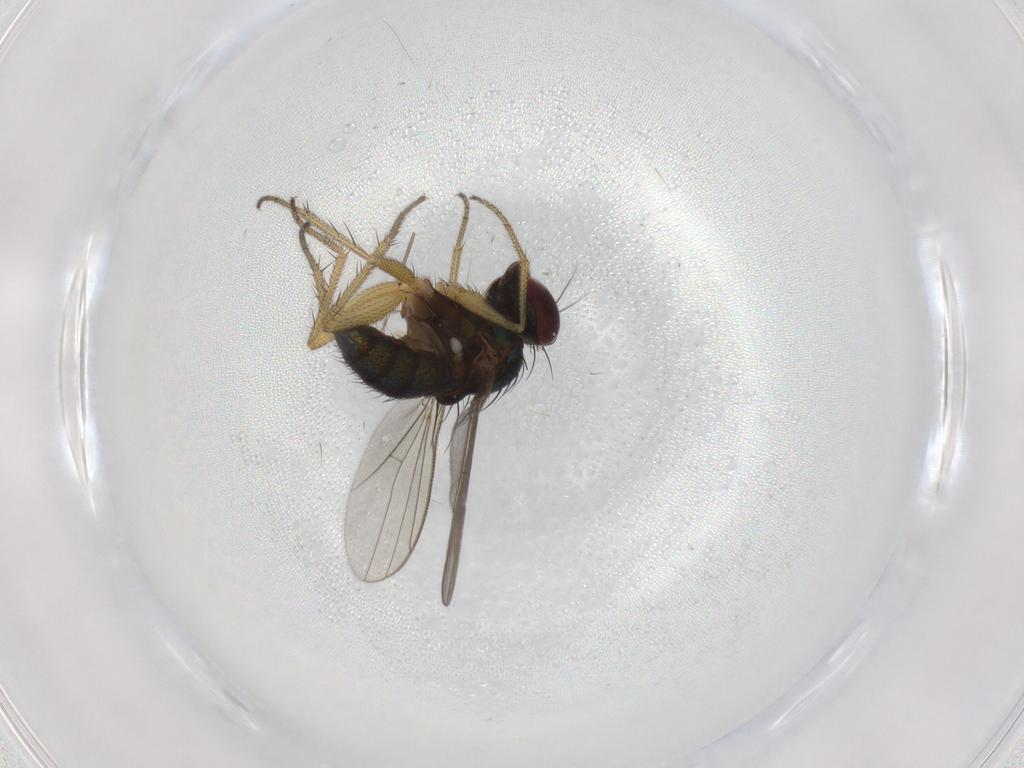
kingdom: Animalia
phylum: Arthropoda
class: Insecta
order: Diptera
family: Dolichopodidae
